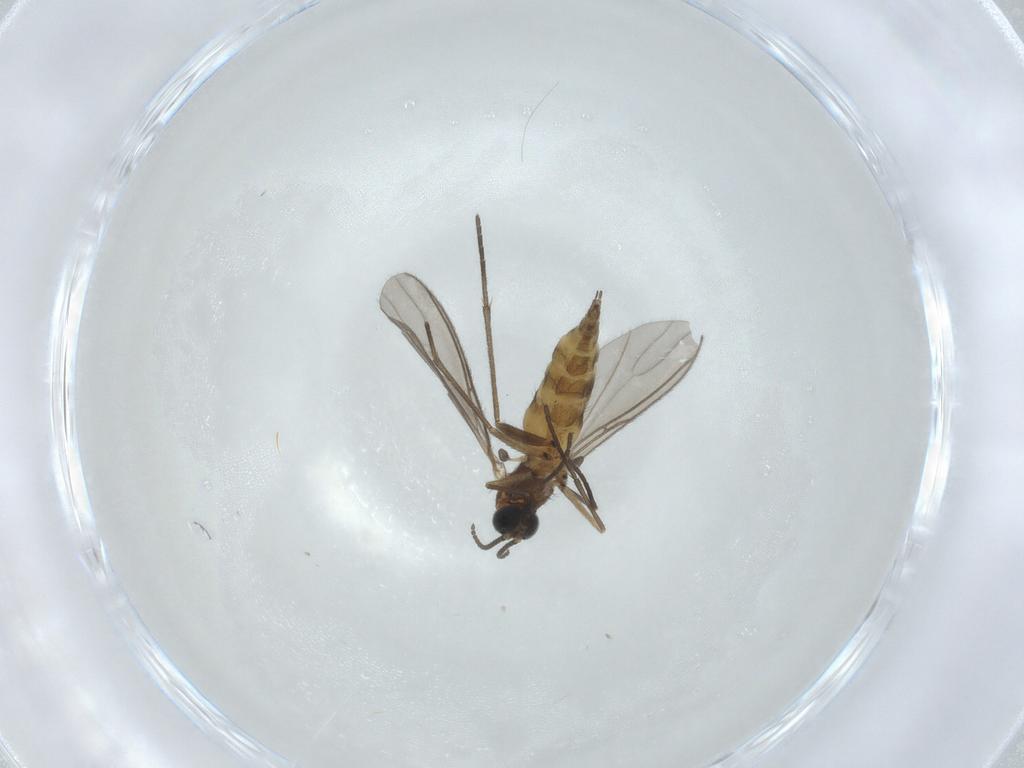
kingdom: Animalia
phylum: Arthropoda
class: Insecta
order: Diptera
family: Sciaridae
